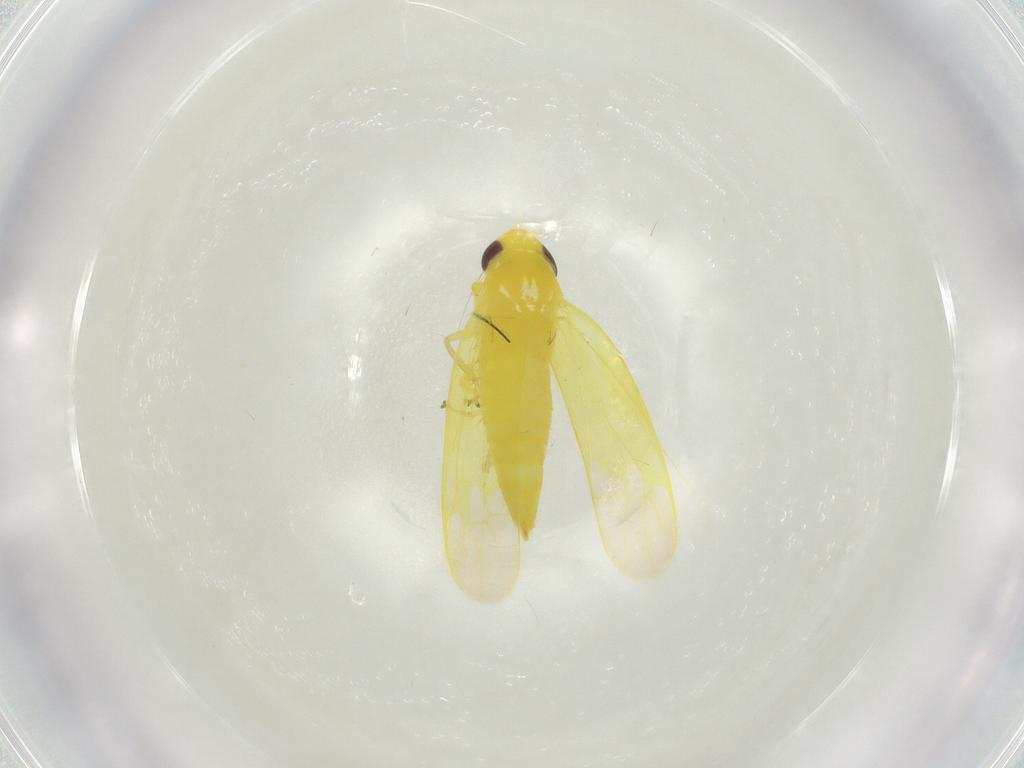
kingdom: Animalia
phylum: Arthropoda
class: Insecta
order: Hemiptera
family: Cicadellidae
